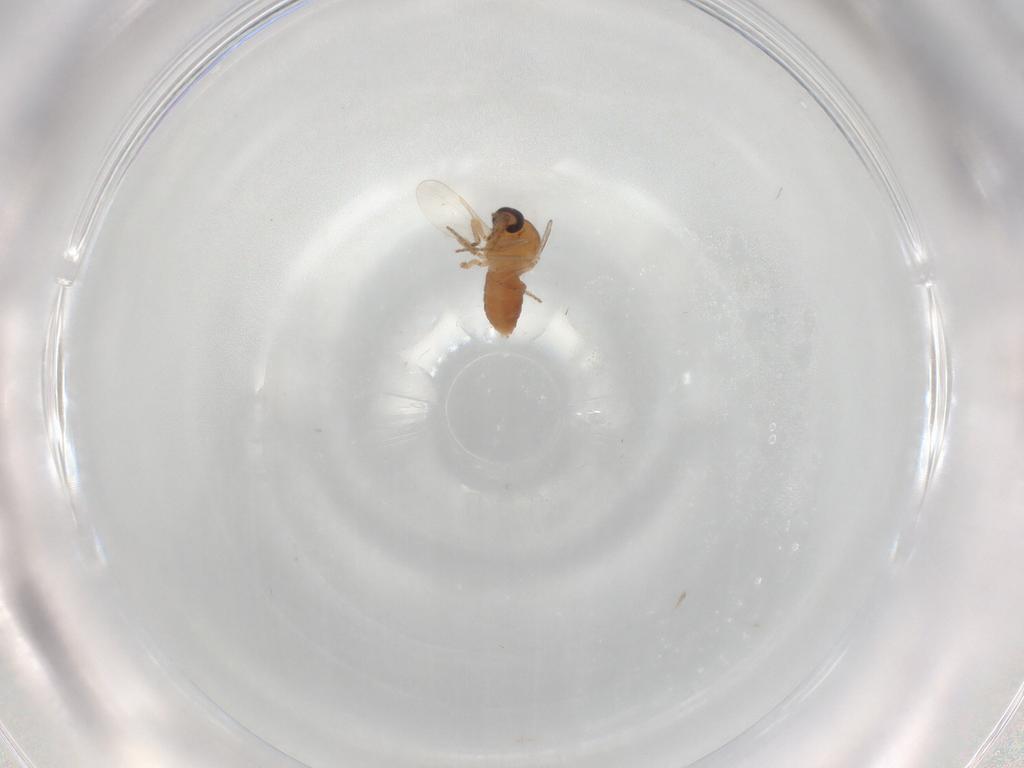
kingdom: Animalia
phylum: Arthropoda
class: Insecta
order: Diptera
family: Ceratopogonidae
